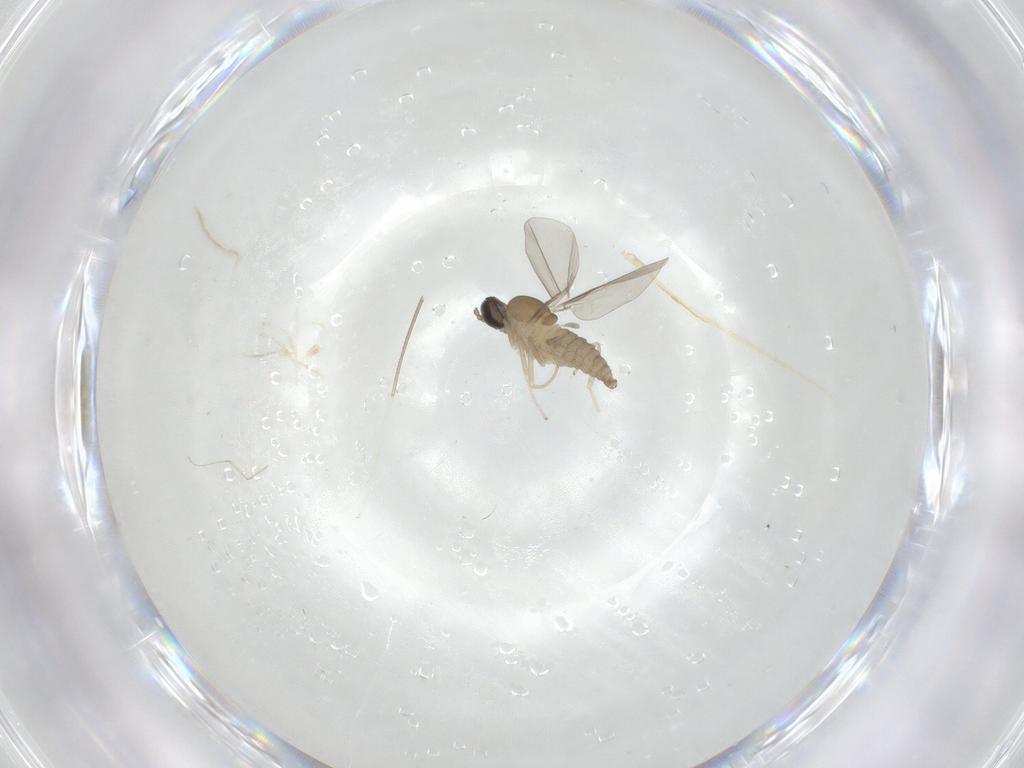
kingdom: Animalia
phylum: Arthropoda
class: Insecta
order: Diptera
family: Cecidomyiidae
